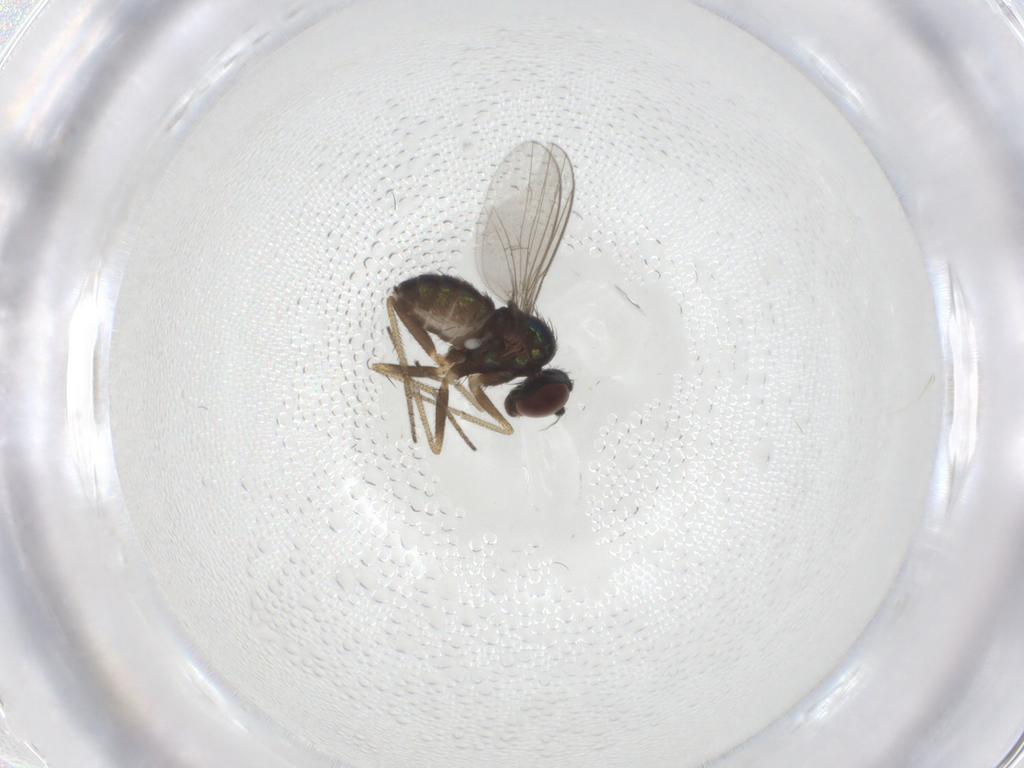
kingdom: Animalia
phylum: Arthropoda
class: Insecta
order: Diptera
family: Dolichopodidae
